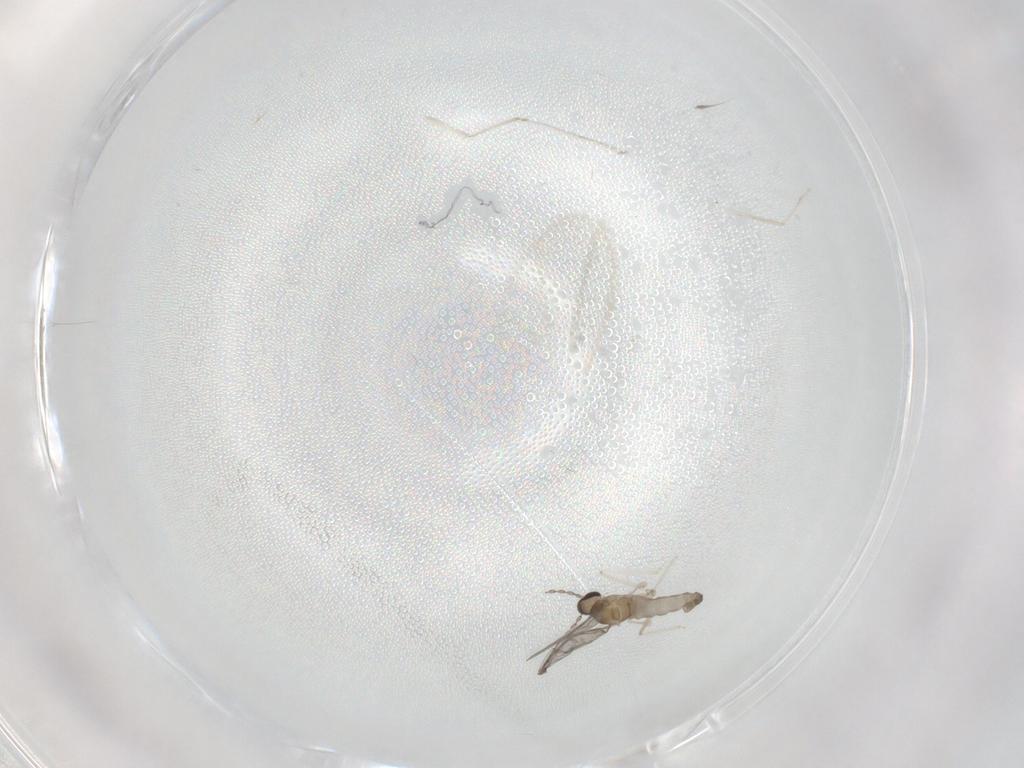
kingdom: Animalia
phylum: Arthropoda
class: Insecta
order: Diptera
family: Cecidomyiidae
